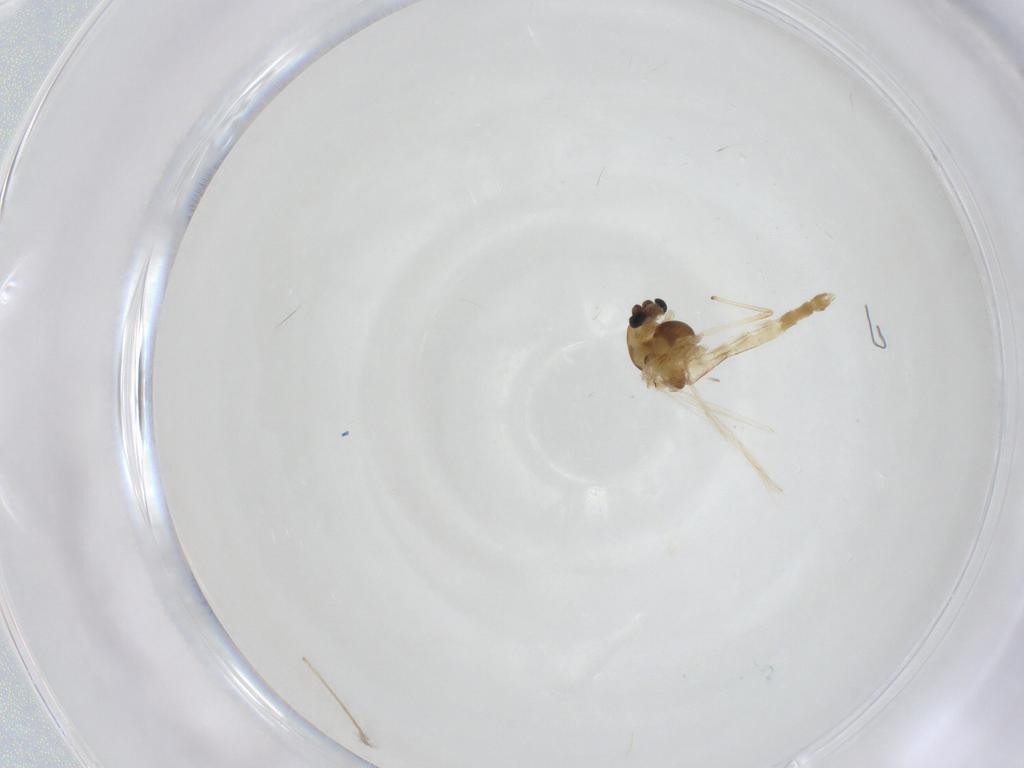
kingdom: Animalia
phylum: Arthropoda
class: Insecta
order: Diptera
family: Chironomidae
